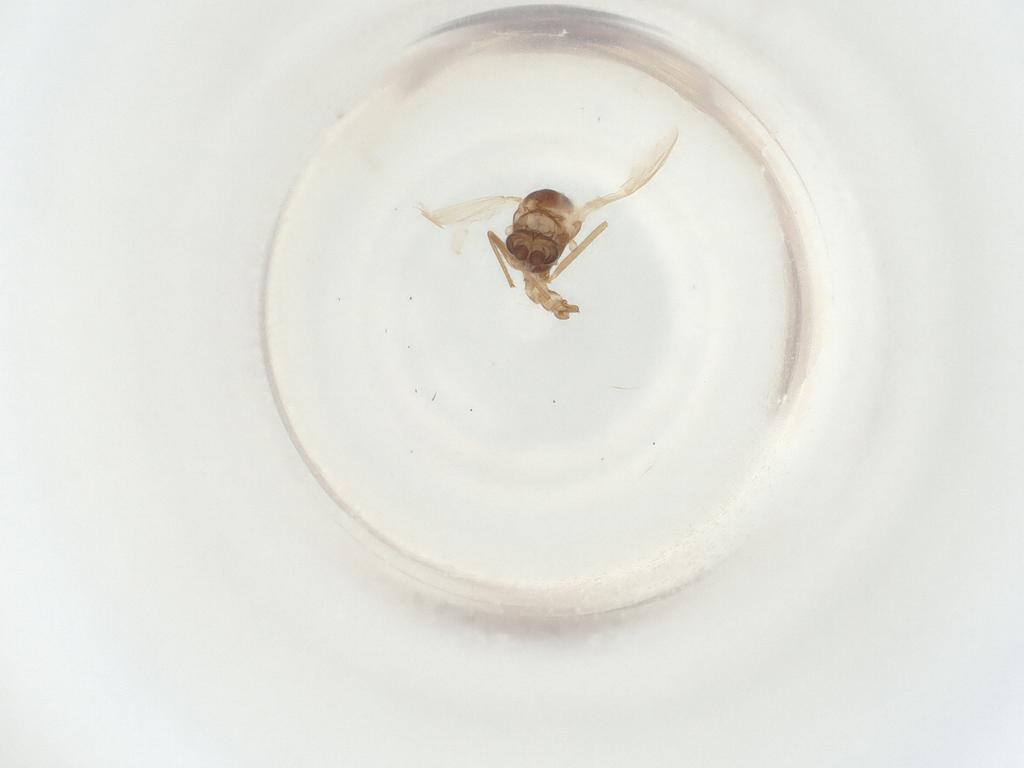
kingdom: Animalia
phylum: Arthropoda
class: Insecta
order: Diptera
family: Chironomidae
